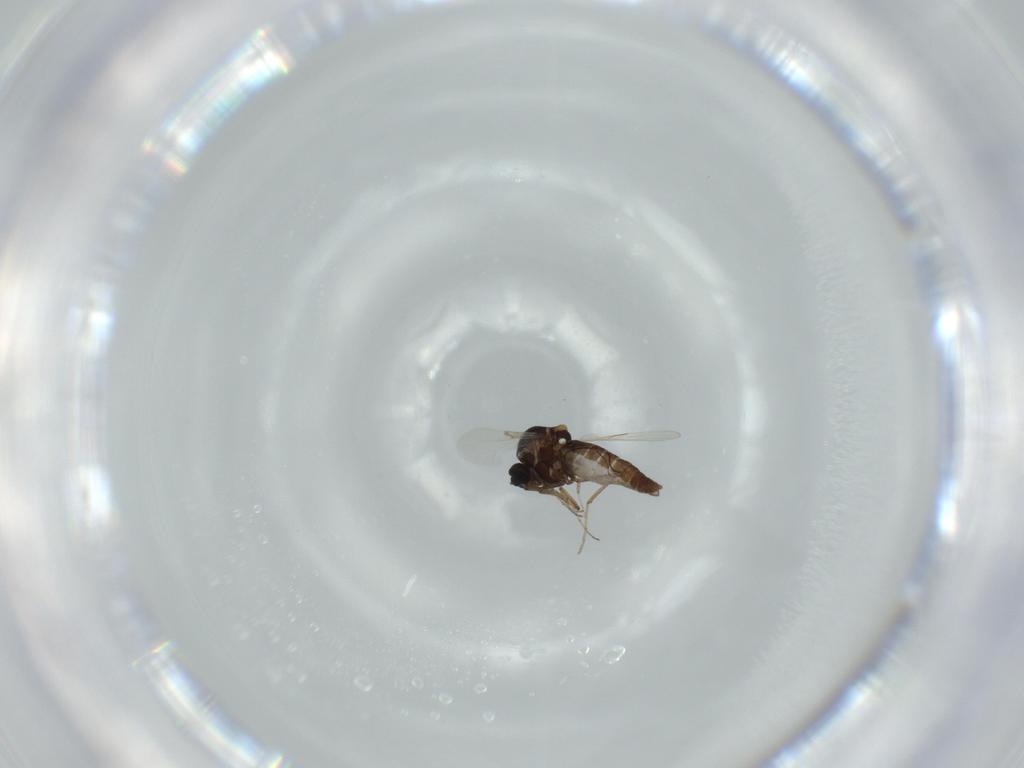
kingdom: Animalia
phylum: Arthropoda
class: Insecta
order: Diptera
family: Ceratopogonidae
